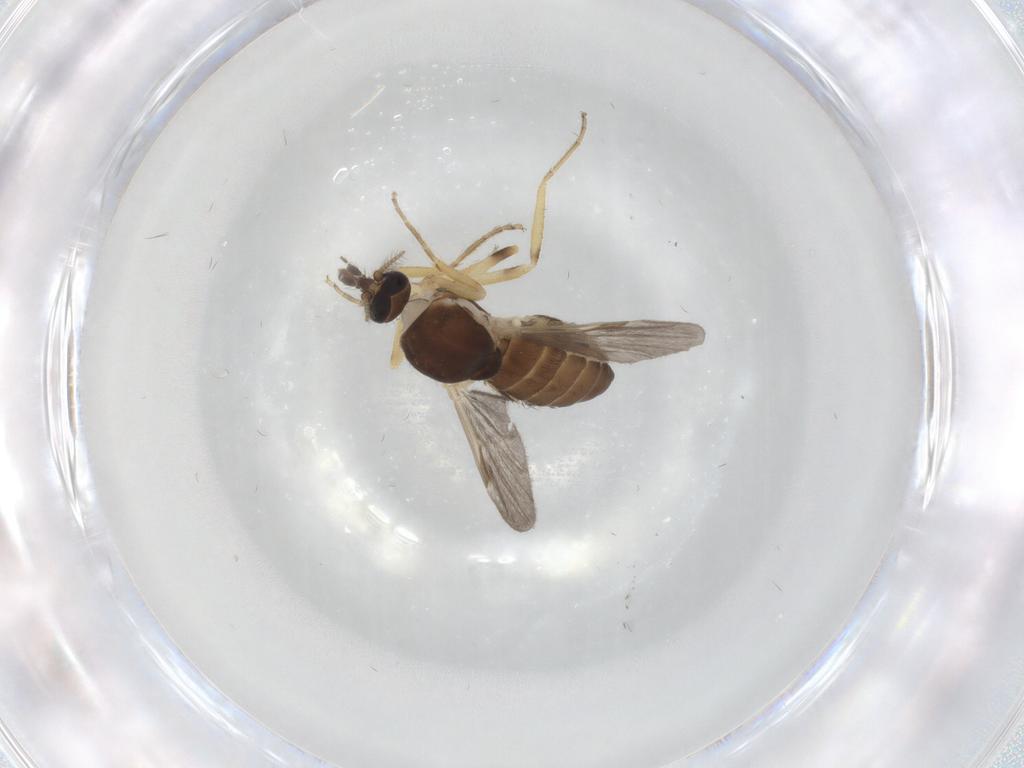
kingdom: Animalia
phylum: Arthropoda
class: Insecta
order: Diptera
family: Ceratopogonidae
